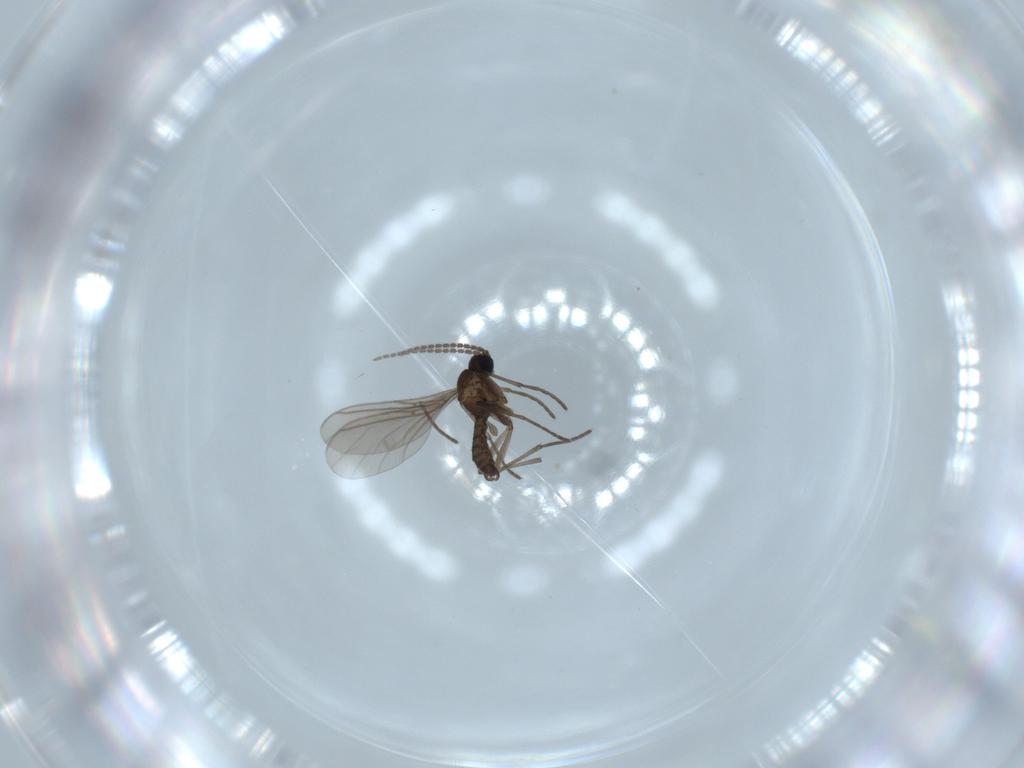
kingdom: Animalia
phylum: Arthropoda
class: Insecta
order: Diptera
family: Sciaridae
